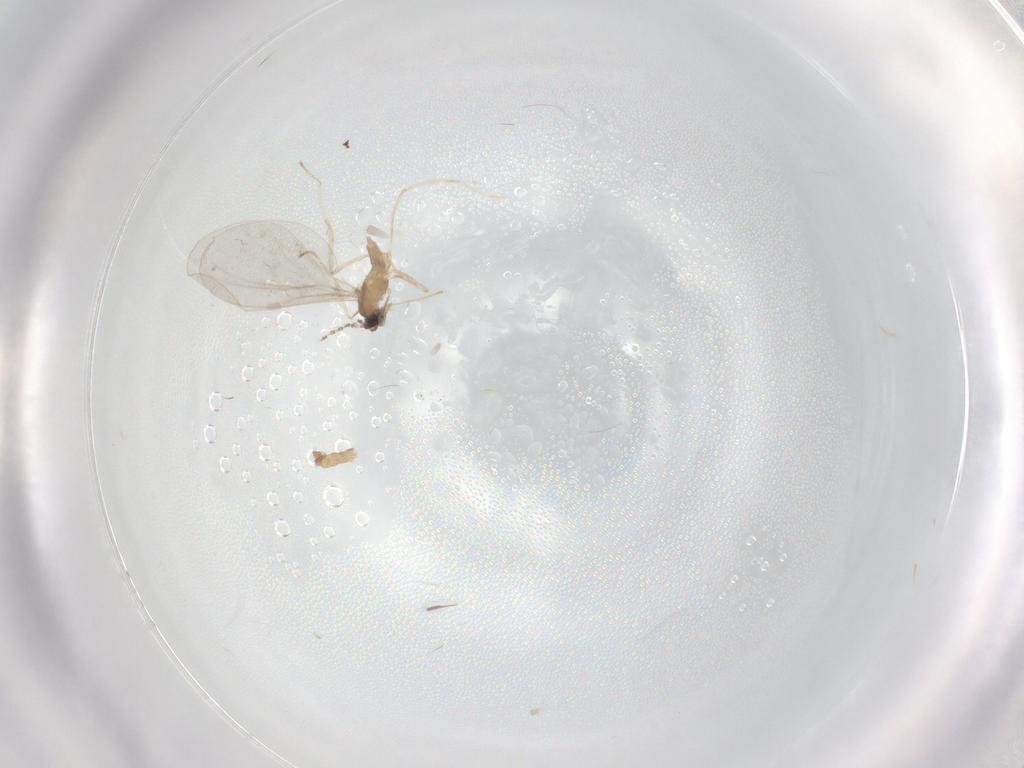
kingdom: Animalia
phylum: Arthropoda
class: Insecta
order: Diptera
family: Cecidomyiidae
